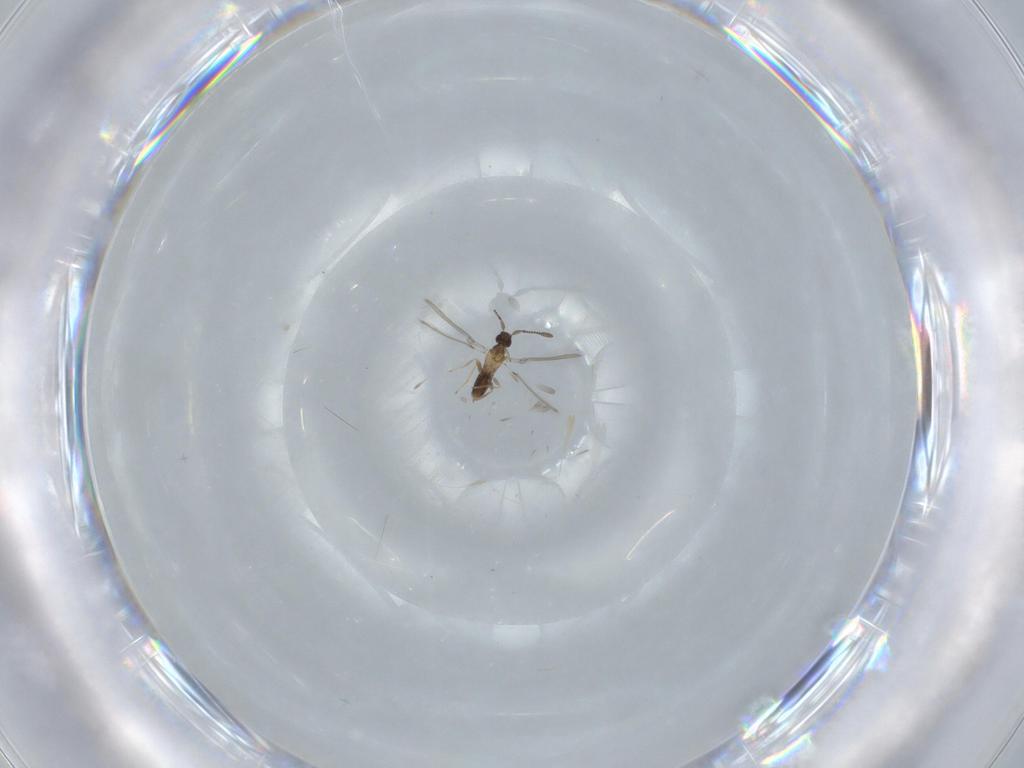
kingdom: Animalia
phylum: Arthropoda
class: Insecta
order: Hymenoptera
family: Mymaridae
